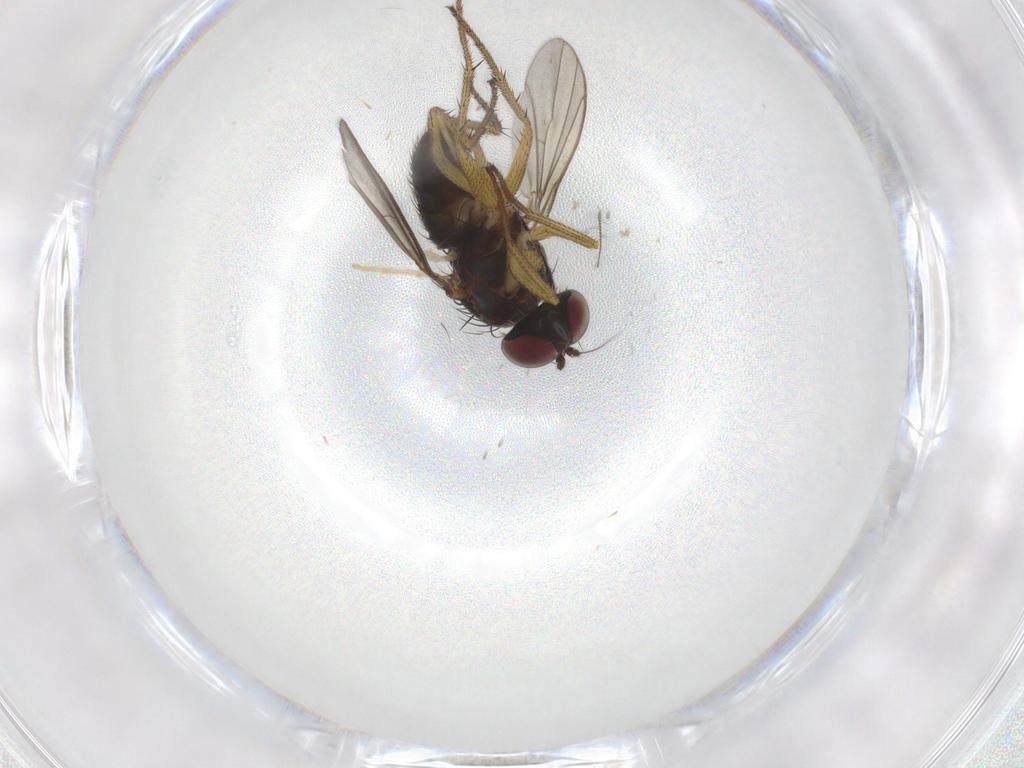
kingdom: Animalia
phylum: Arthropoda
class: Insecta
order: Diptera
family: Dolichopodidae
